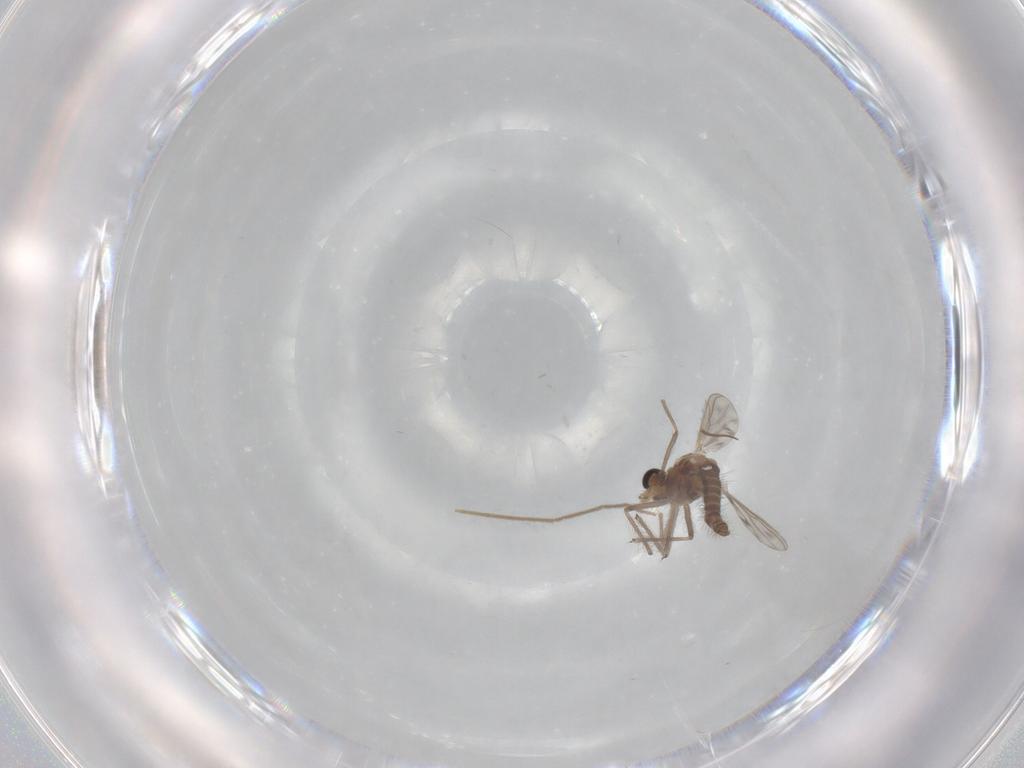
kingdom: Animalia
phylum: Arthropoda
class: Insecta
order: Diptera
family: Chironomidae
